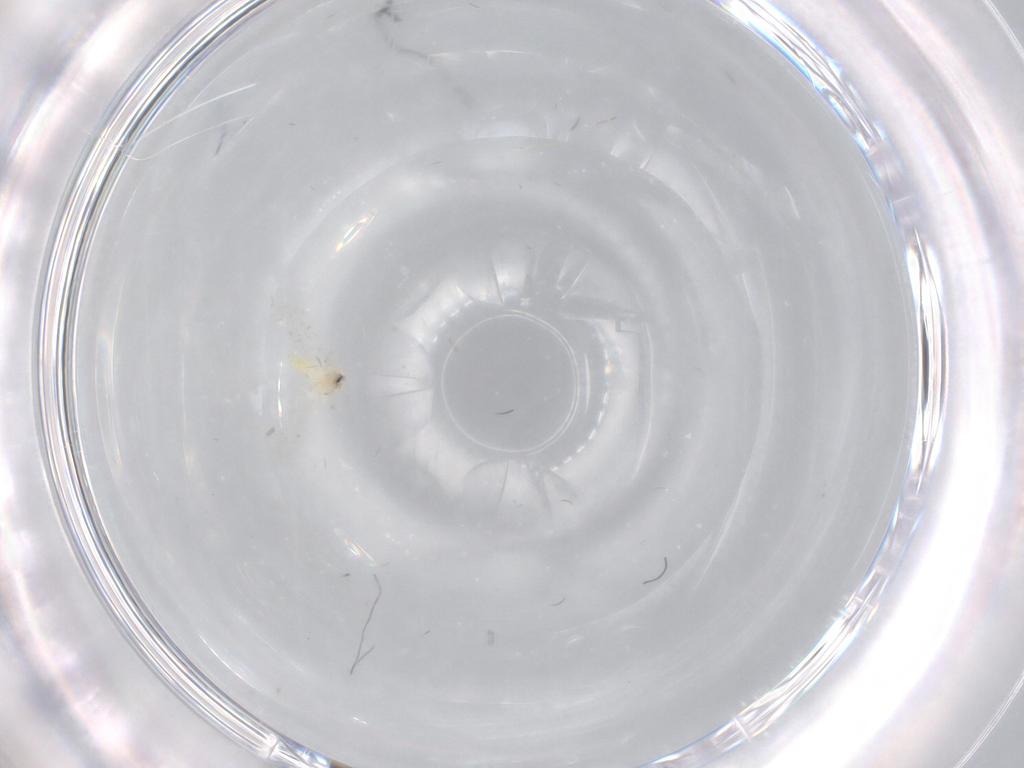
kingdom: Animalia
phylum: Arthropoda
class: Insecta
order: Hemiptera
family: Aleyrodidae
